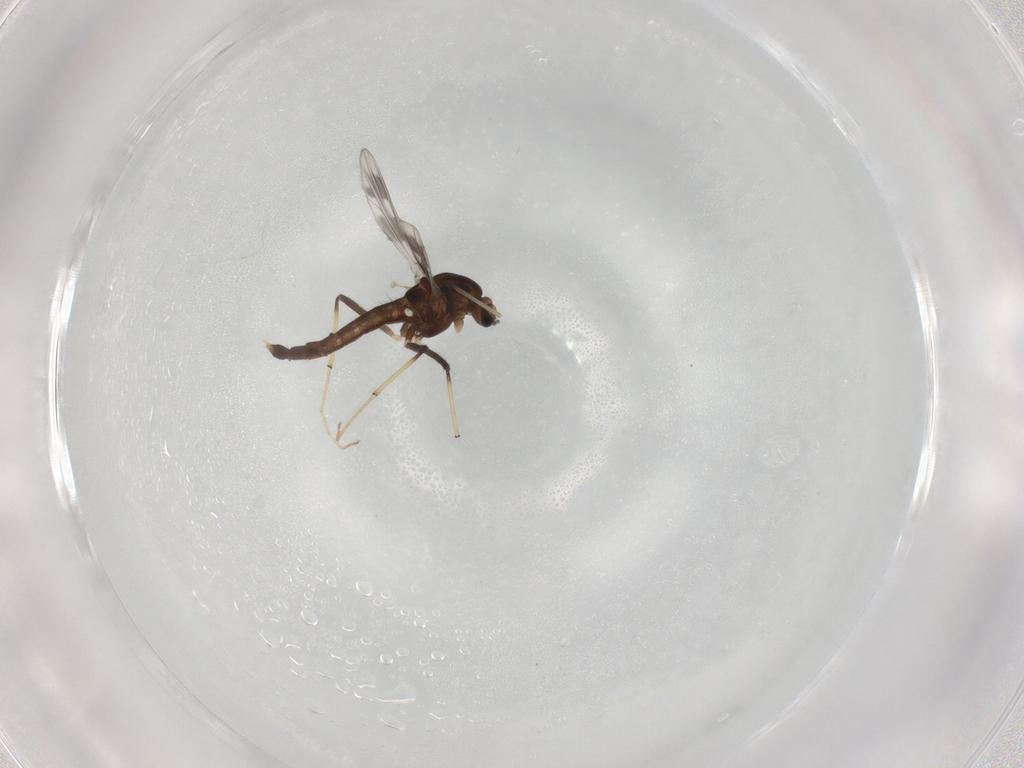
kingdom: Animalia
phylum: Arthropoda
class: Insecta
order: Diptera
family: Chironomidae
